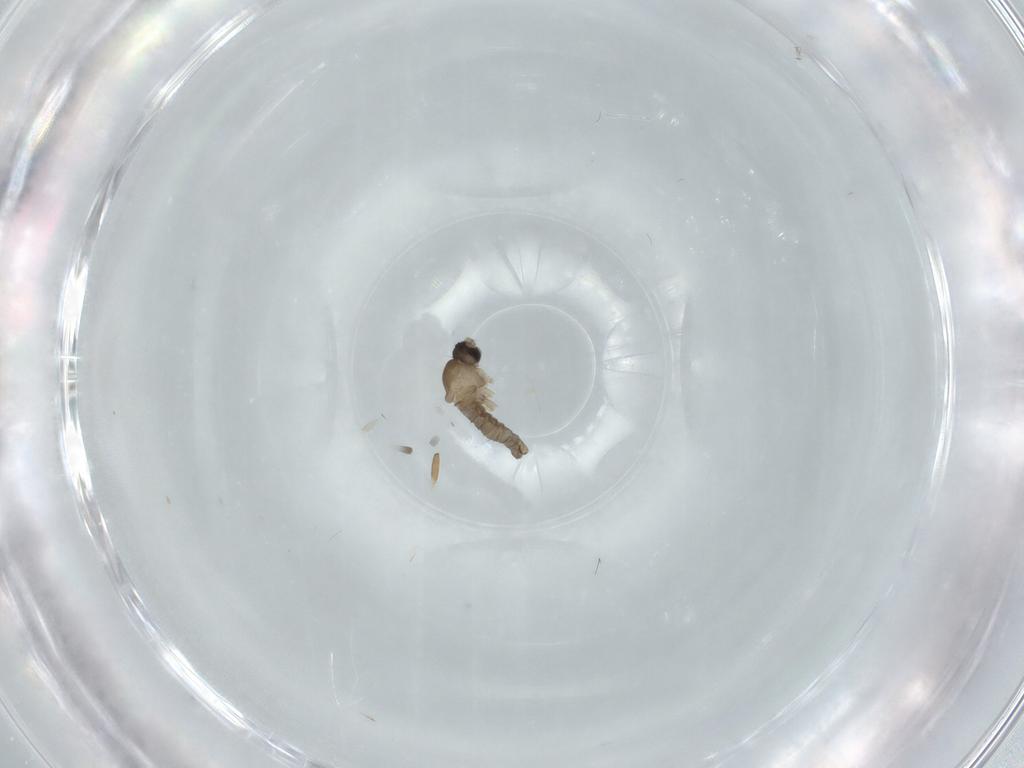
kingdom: Animalia
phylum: Arthropoda
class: Insecta
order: Diptera
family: Cecidomyiidae
